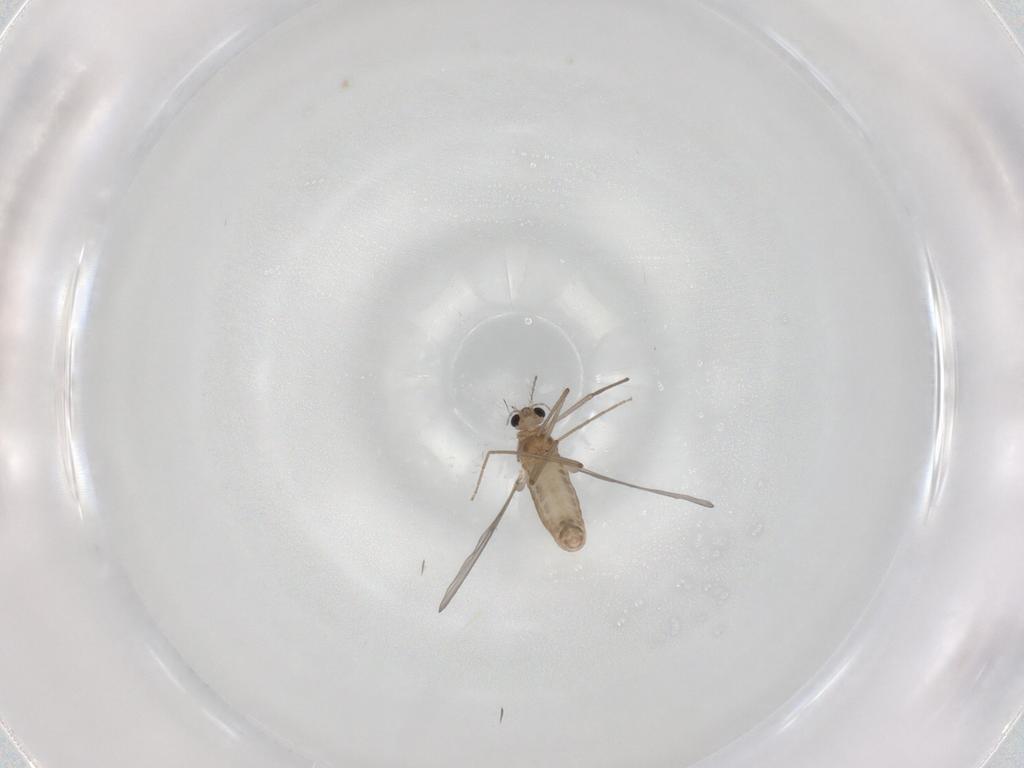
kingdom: Animalia
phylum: Arthropoda
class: Insecta
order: Diptera
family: Chironomidae
